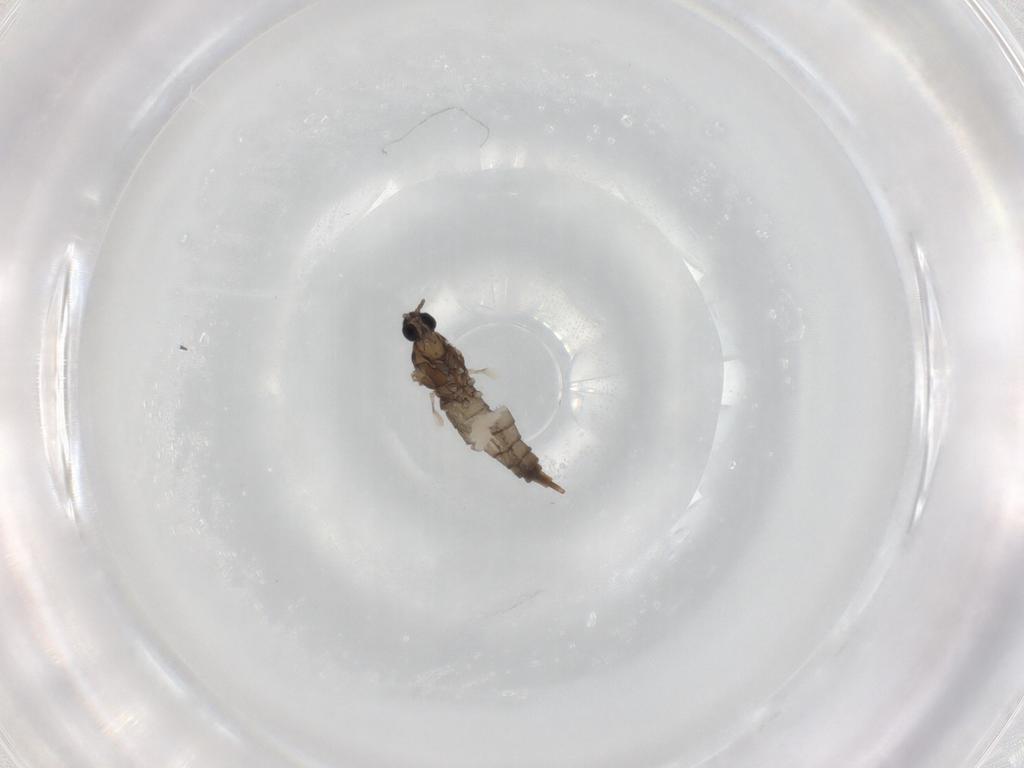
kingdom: Animalia
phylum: Arthropoda
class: Insecta
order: Diptera
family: Cecidomyiidae
